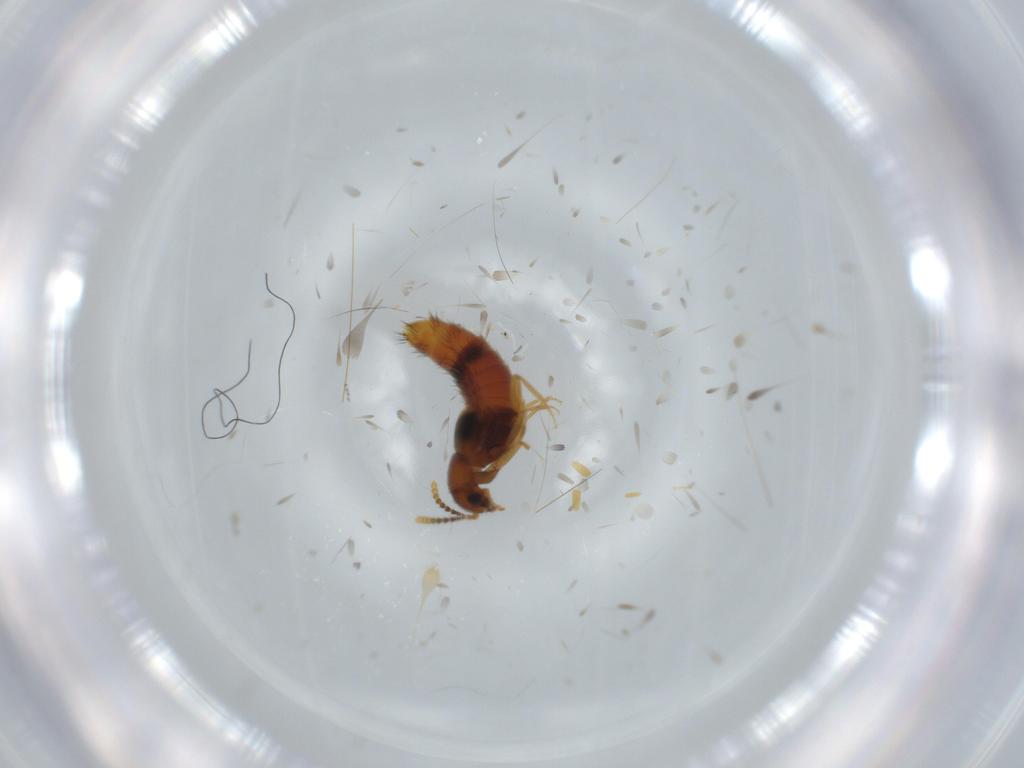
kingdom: Animalia
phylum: Arthropoda
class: Insecta
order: Coleoptera
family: Staphylinidae
